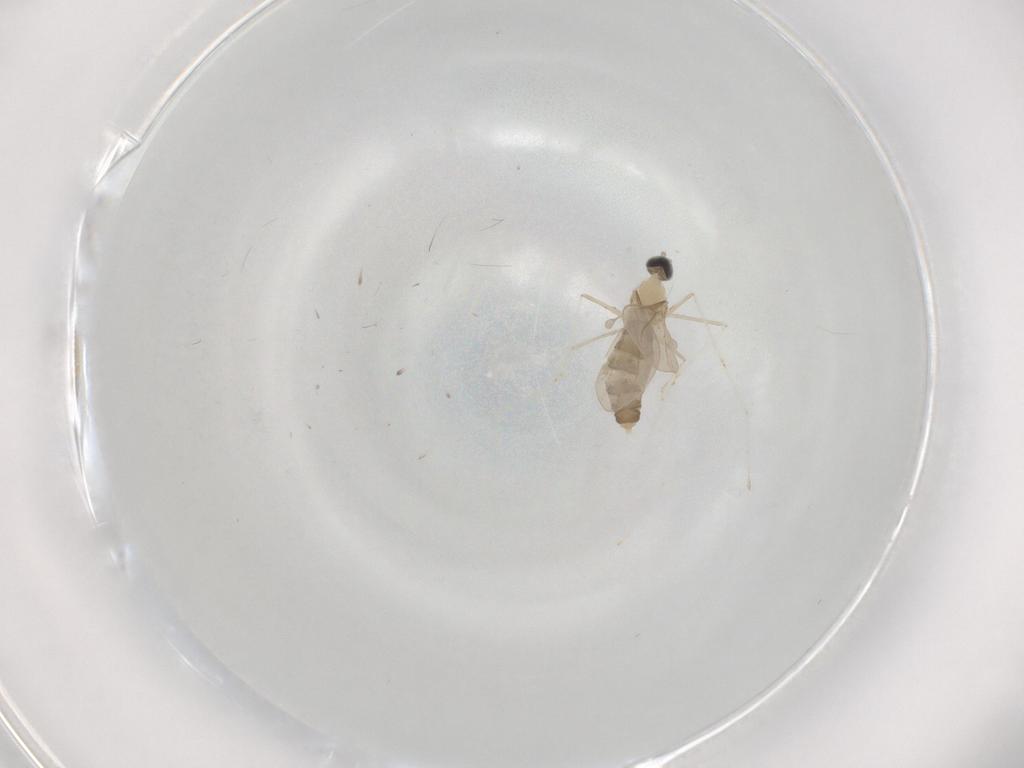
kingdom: Animalia
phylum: Arthropoda
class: Insecta
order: Diptera
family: Cecidomyiidae
